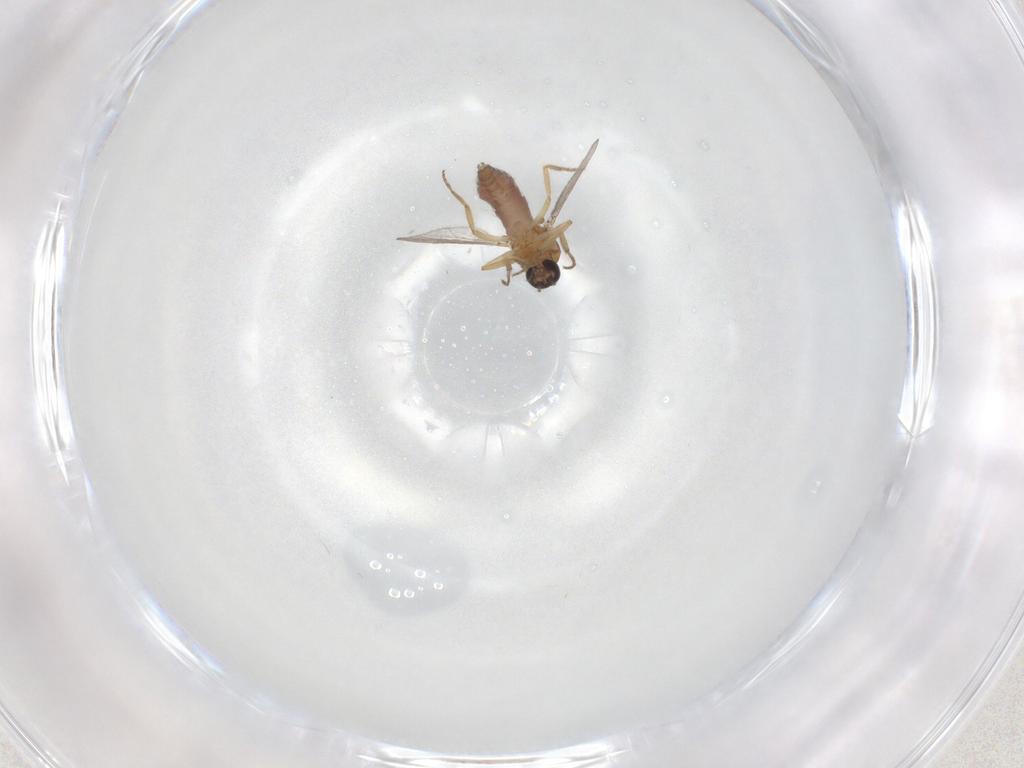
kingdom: Animalia
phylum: Arthropoda
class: Insecta
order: Diptera
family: Ceratopogonidae
